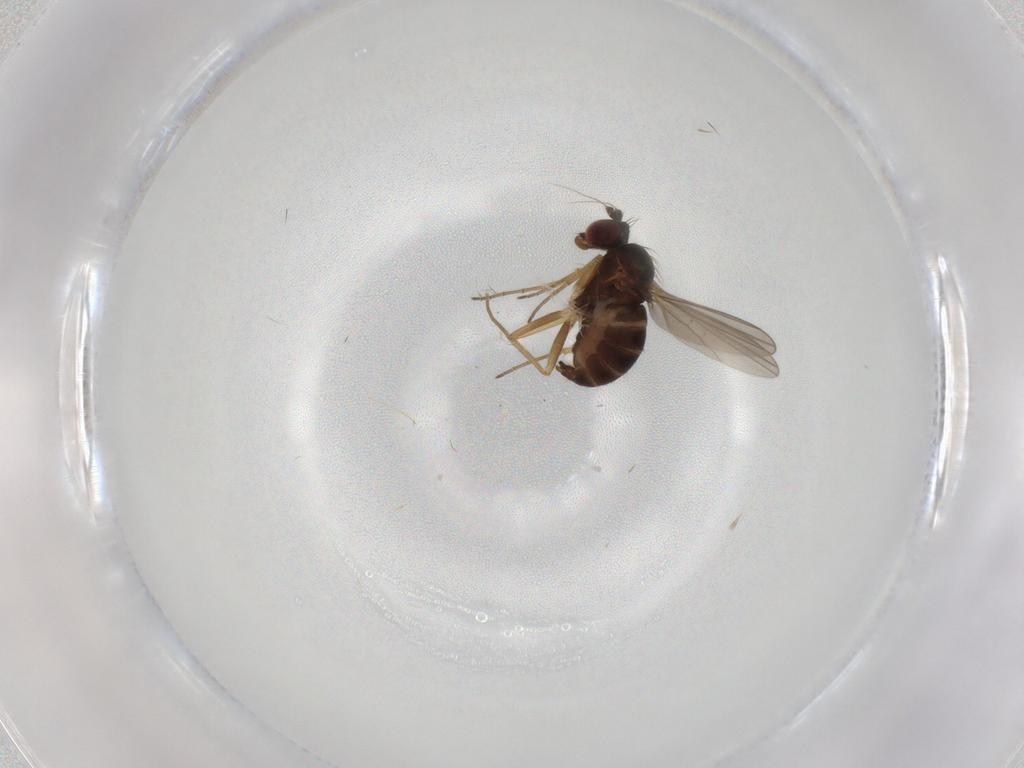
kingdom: Animalia
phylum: Arthropoda
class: Insecta
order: Diptera
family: Dolichopodidae
